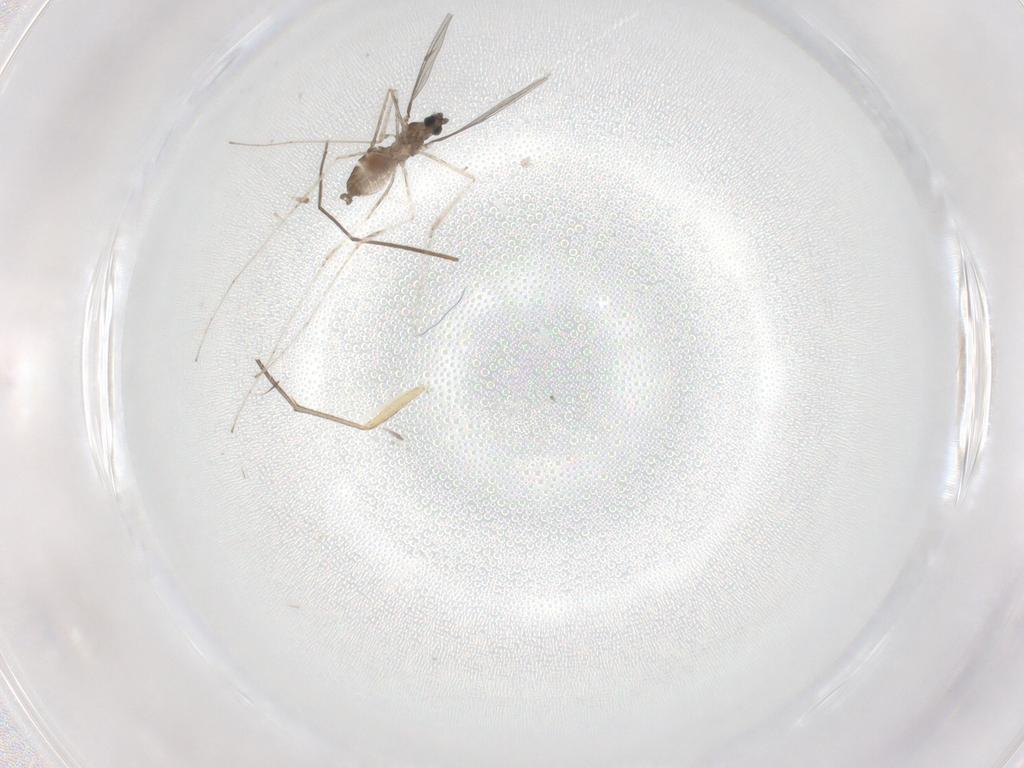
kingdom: Animalia
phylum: Arthropoda
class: Insecta
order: Diptera
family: Chironomidae
